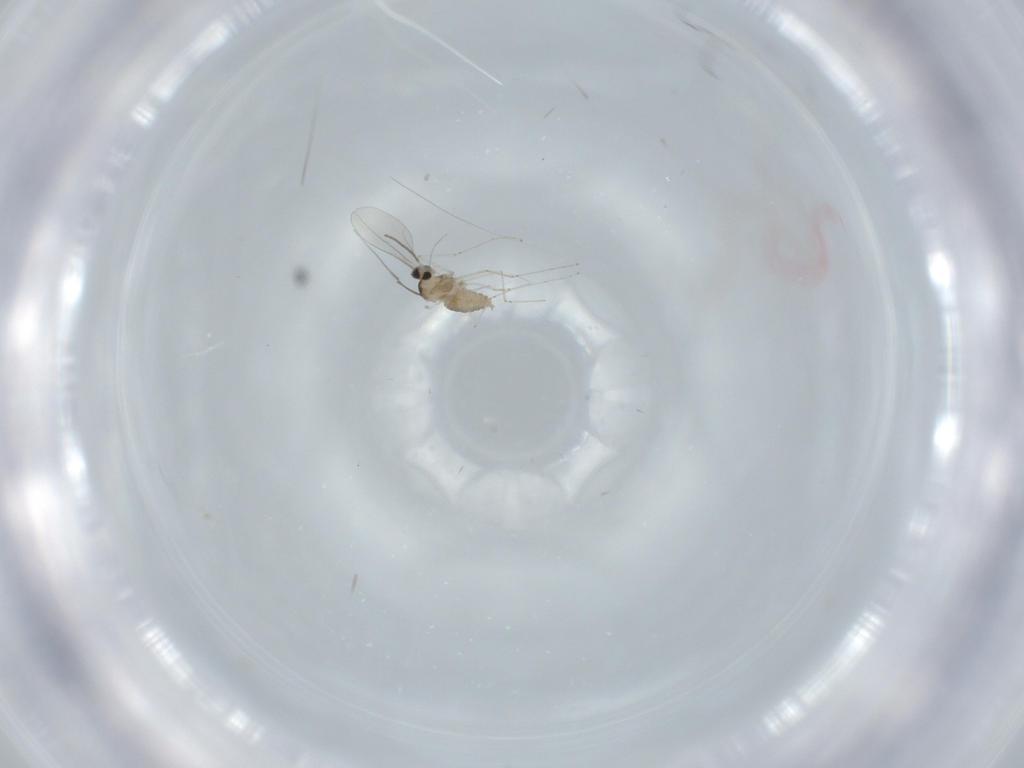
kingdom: Animalia
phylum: Arthropoda
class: Insecta
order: Diptera
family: Cecidomyiidae
